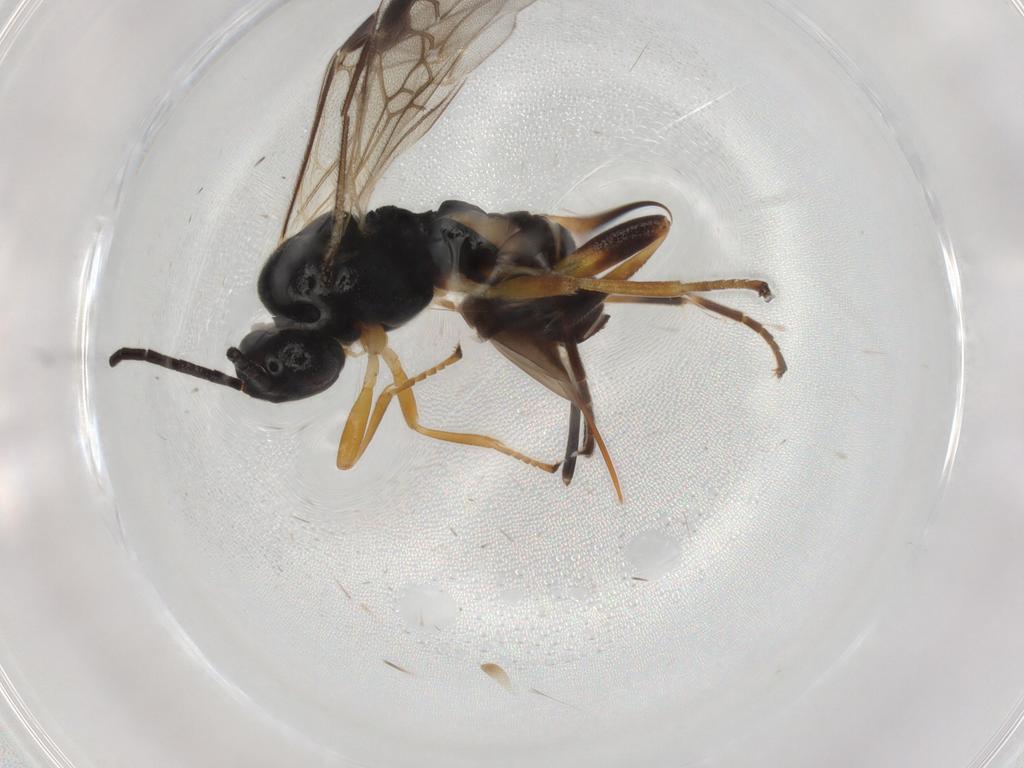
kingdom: Animalia
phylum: Arthropoda
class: Insecta
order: Hymenoptera
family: Braconidae
